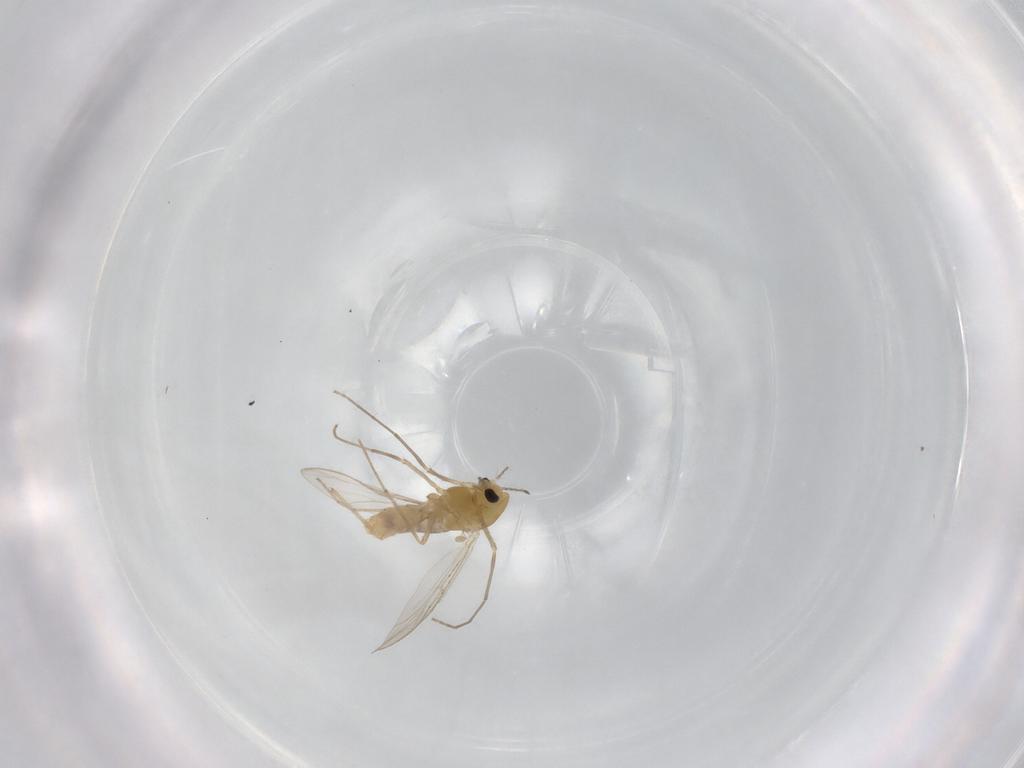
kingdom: Animalia
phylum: Arthropoda
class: Insecta
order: Diptera
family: Chironomidae
